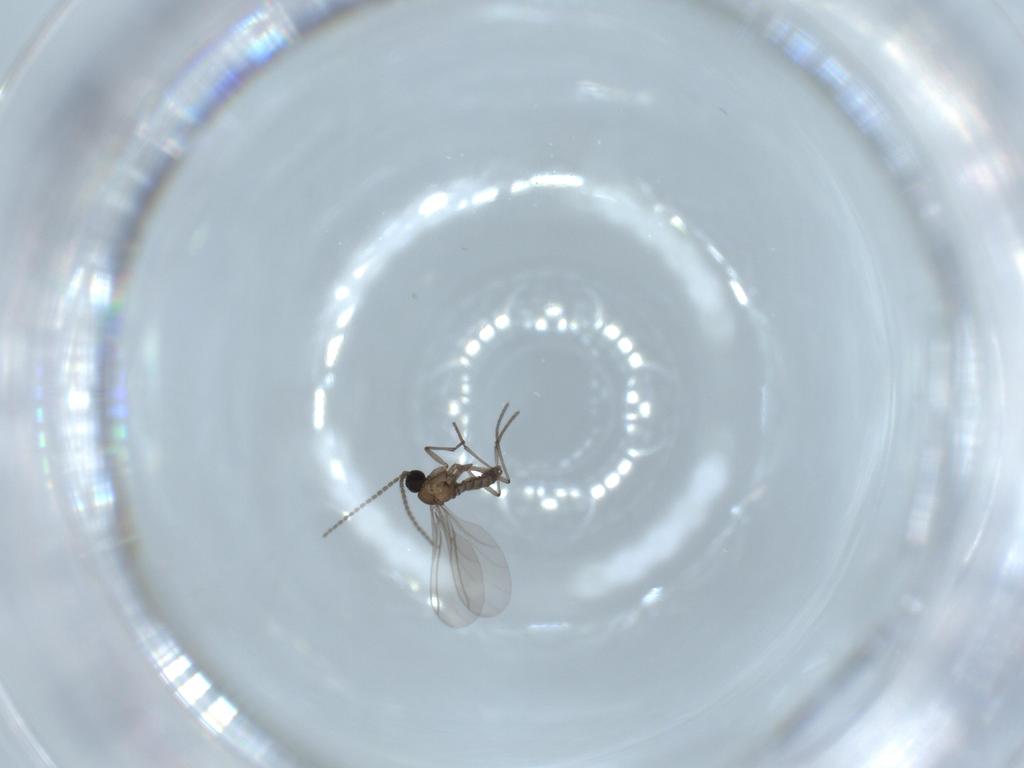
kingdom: Animalia
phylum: Arthropoda
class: Insecta
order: Diptera
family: Sciaridae
